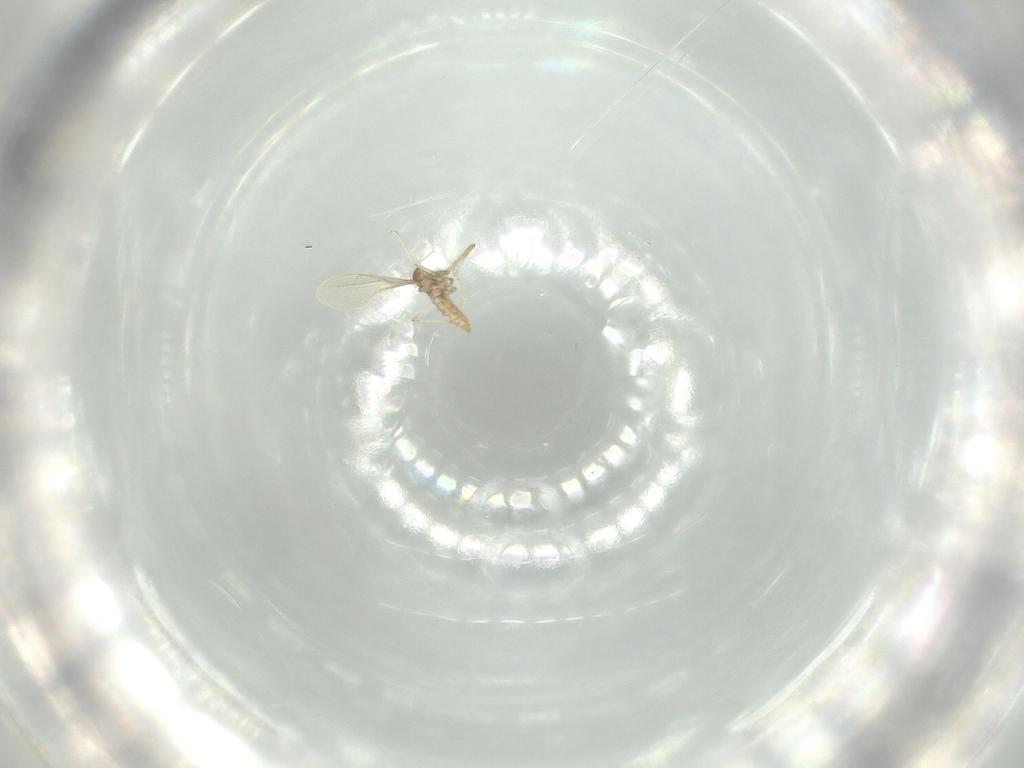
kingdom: Animalia
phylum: Arthropoda
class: Insecta
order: Diptera
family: Cecidomyiidae
